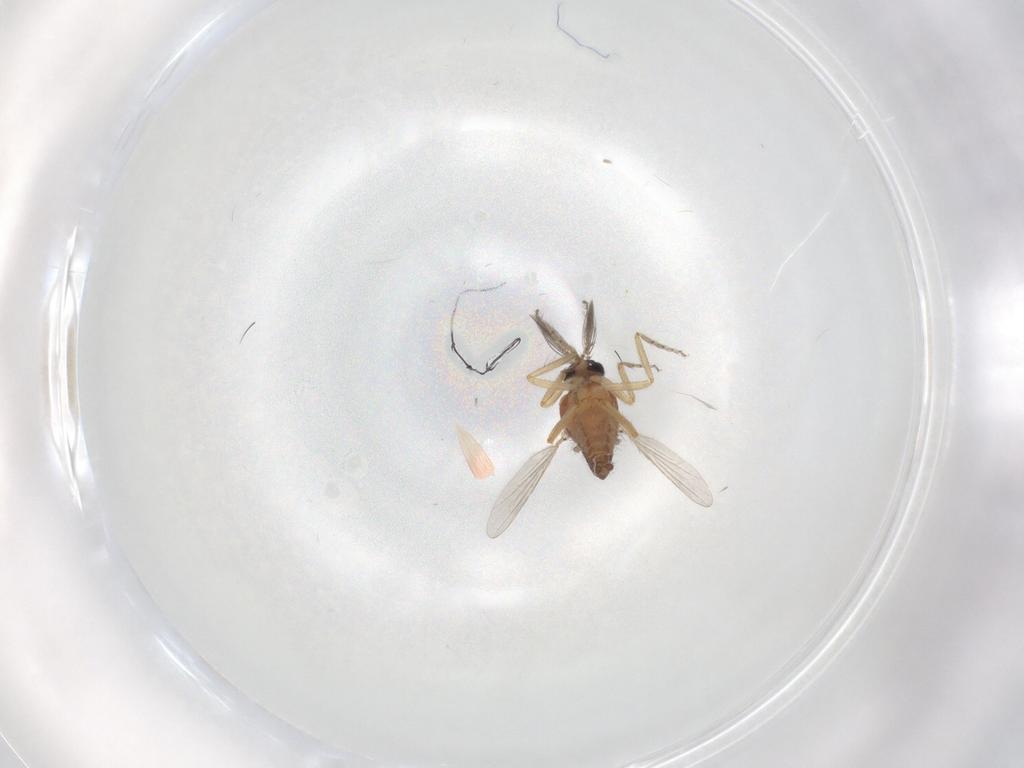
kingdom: Animalia
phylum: Arthropoda
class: Insecta
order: Diptera
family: Ceratopogonidae
